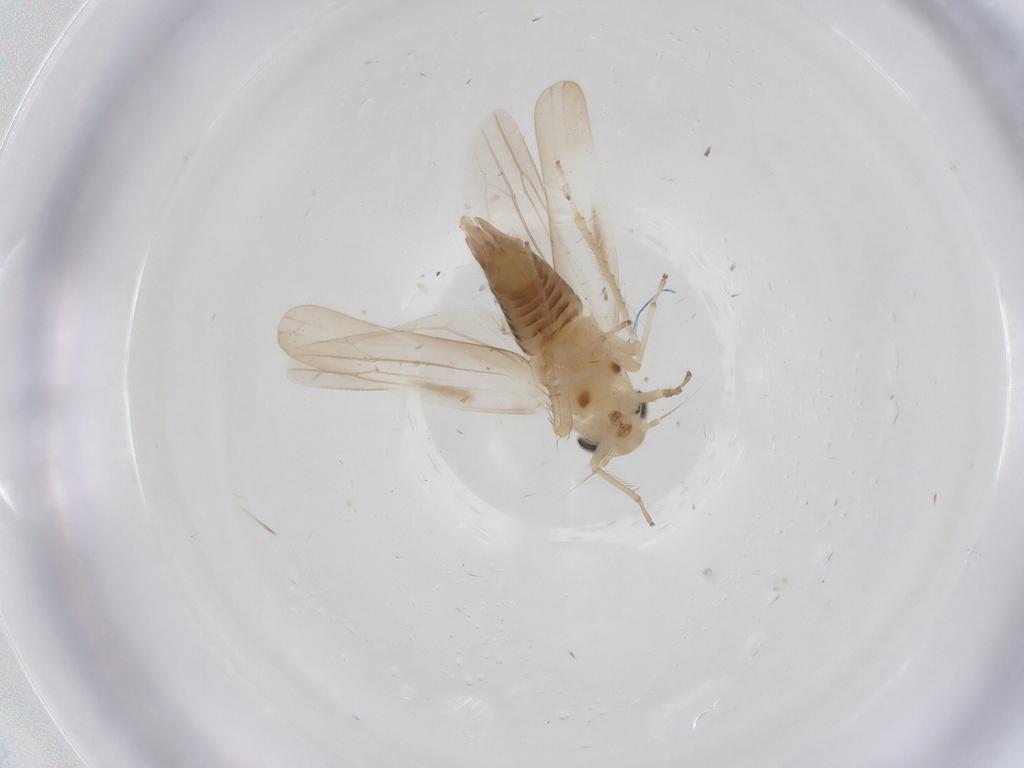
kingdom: Animalia
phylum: Arthropoda
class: Insecta
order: Hemiptera
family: Cicadellidae
